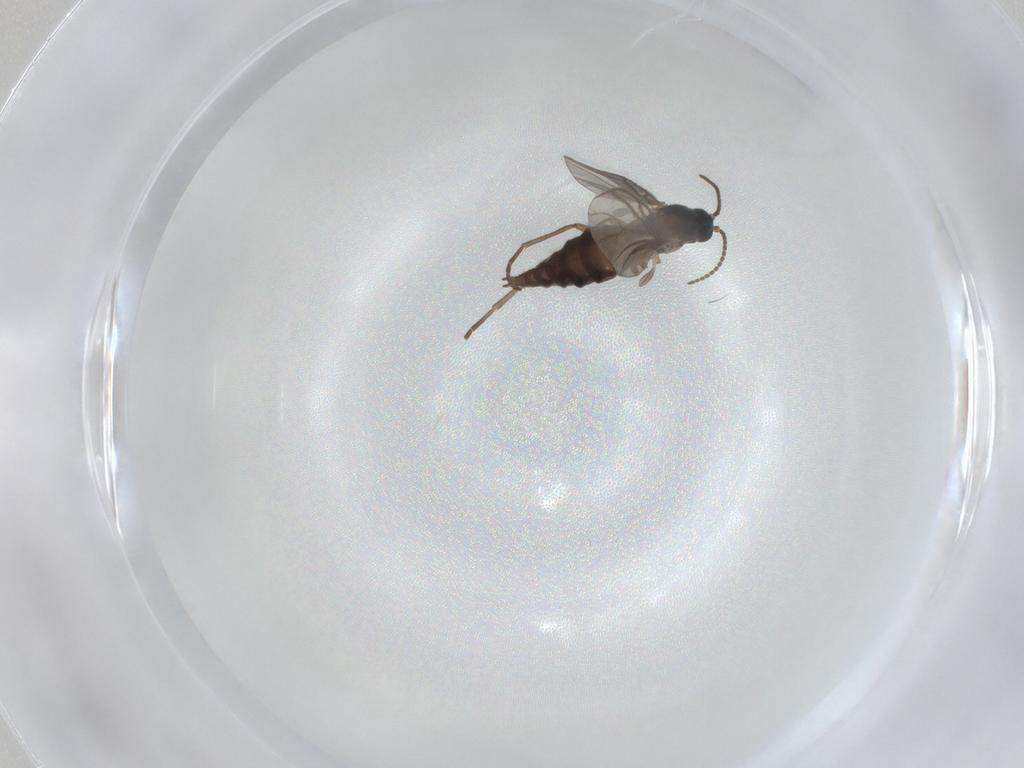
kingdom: Animalia
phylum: Arthropoda
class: Insecta
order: Diptera
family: Sciaridae
